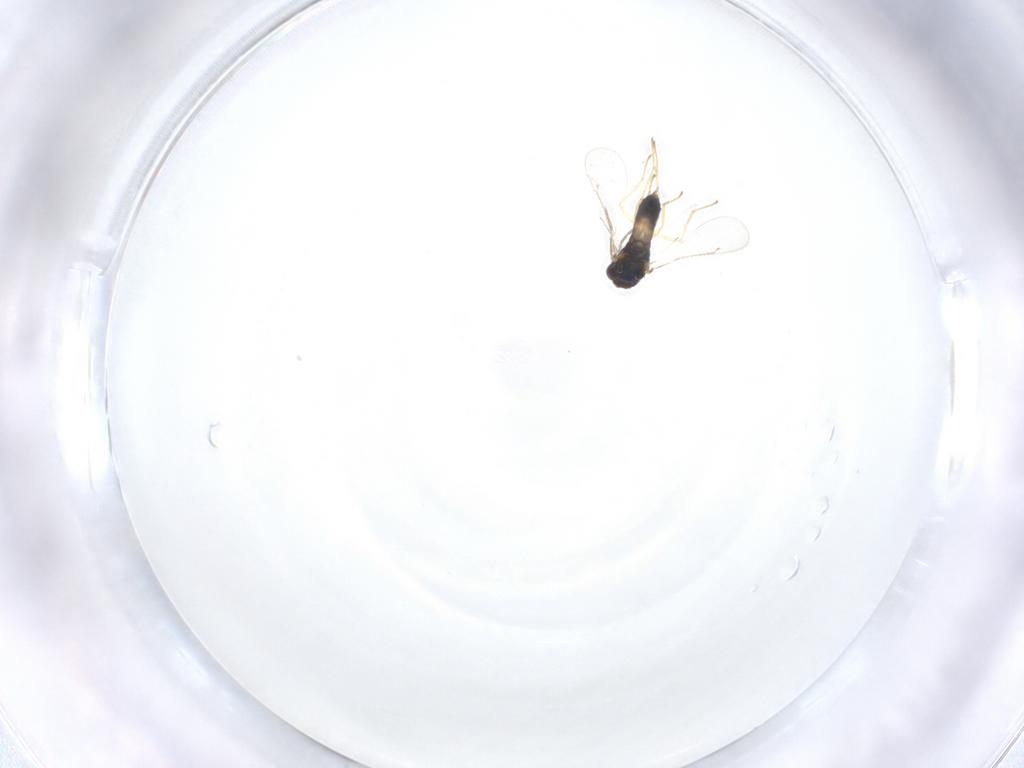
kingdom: Animalia
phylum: Arthropoda
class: Insecta
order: Hymenoptera
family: Eulophidae
